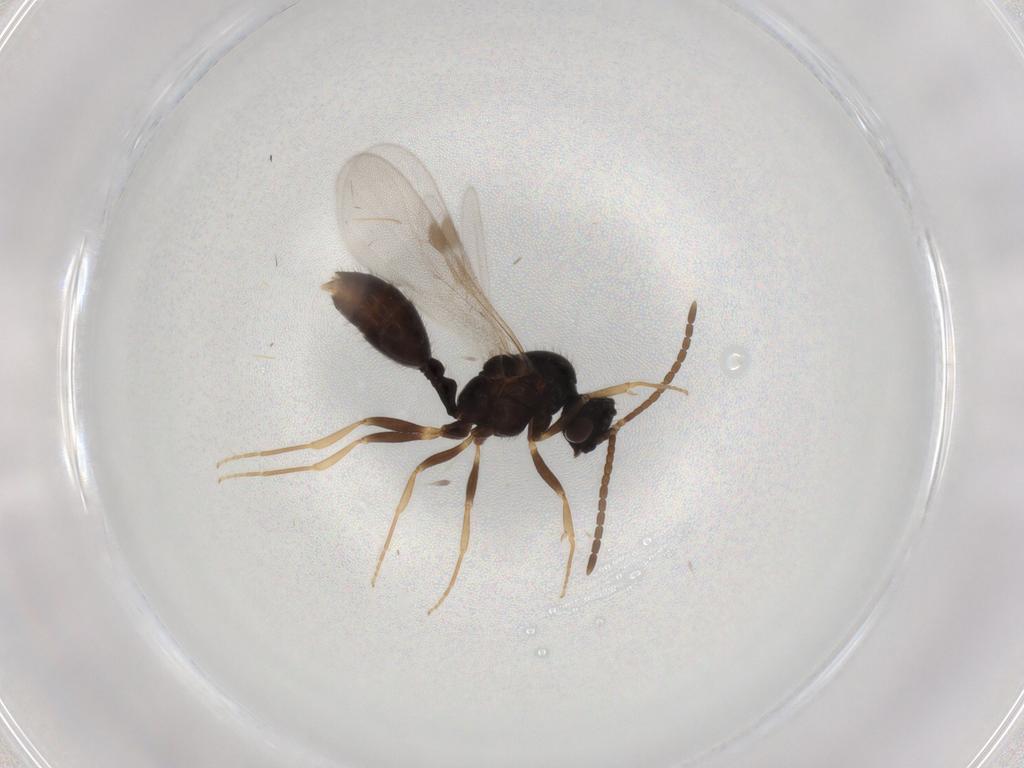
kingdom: Animalia
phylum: Arthropoda
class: Insecta
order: Hymenoptera
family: Formicidae
